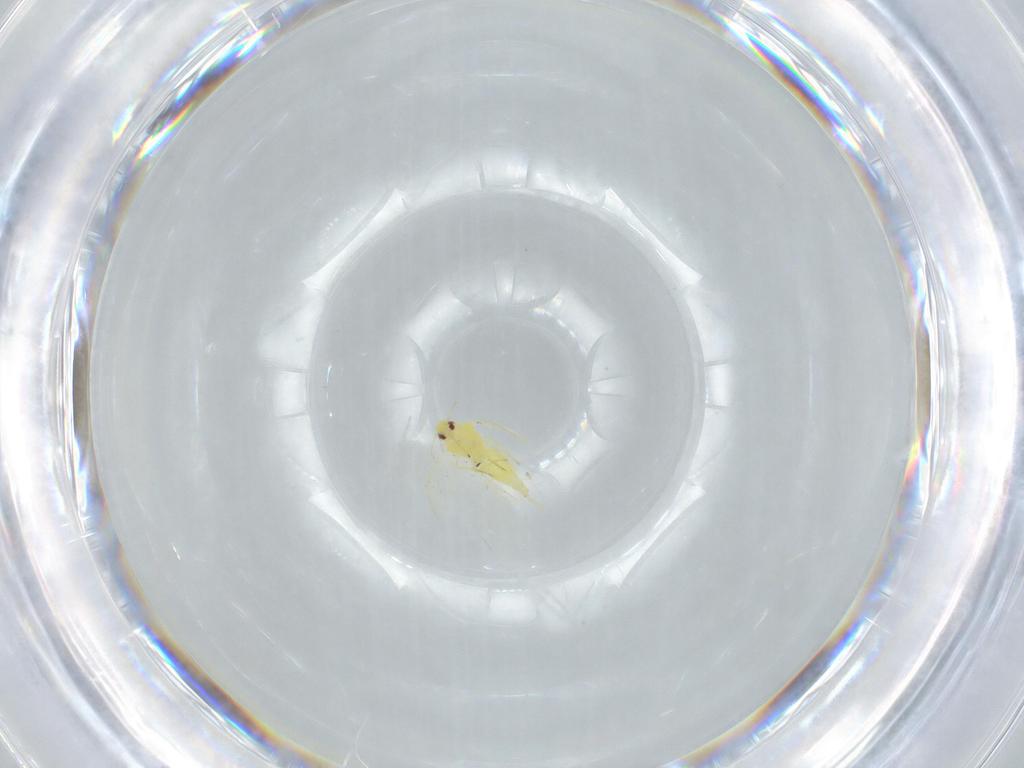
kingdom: Animalia
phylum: Arthropoda
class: Insecta
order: Hemiptera
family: Aleyrodidae
